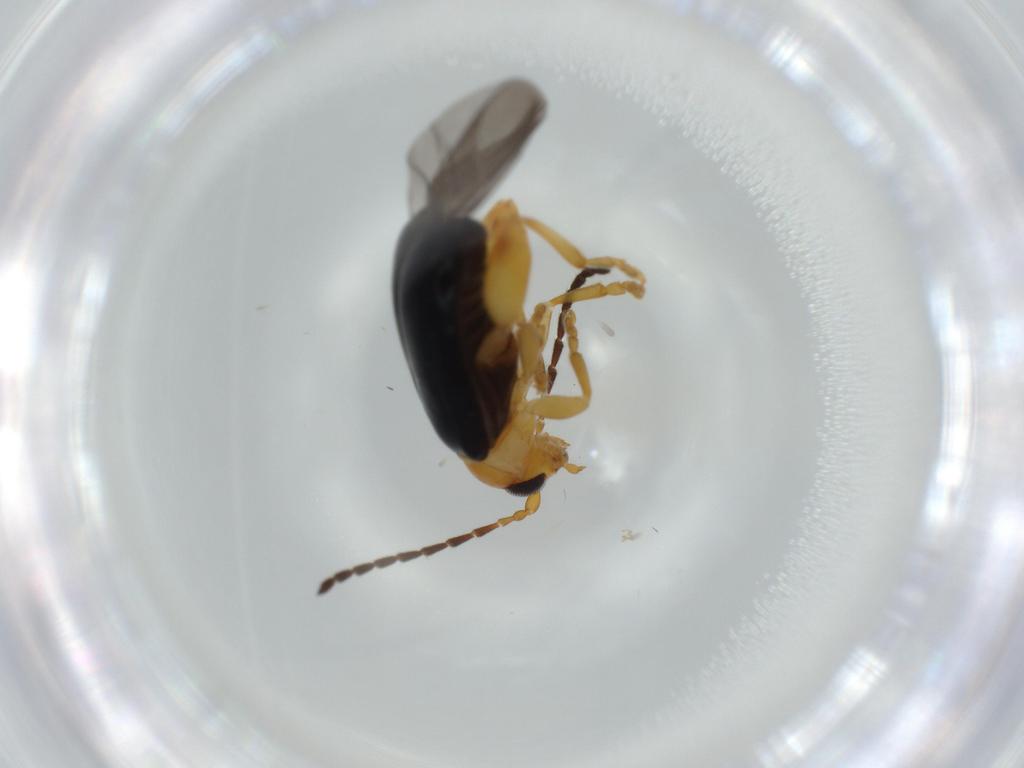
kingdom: Animalia
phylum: Arthropoda
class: Insecta
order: Coleoptera
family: Chrysomelidae
